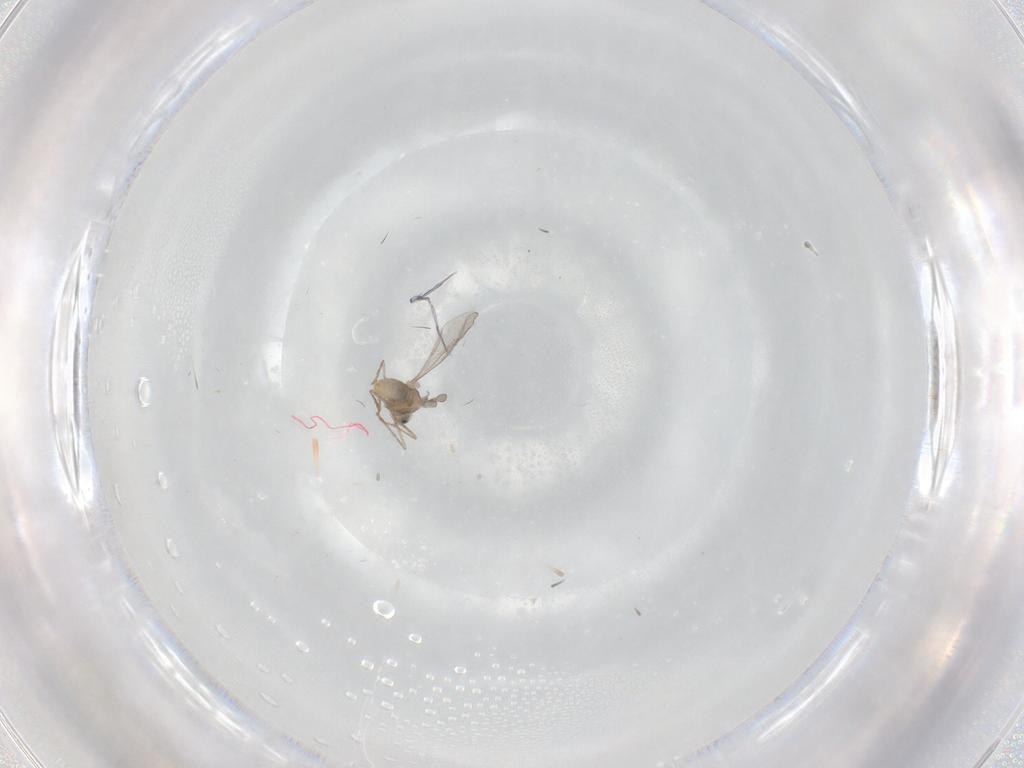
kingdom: Animalia
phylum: Arthropoda
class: Insecta
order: Diptera
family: Cecidomyiidae
